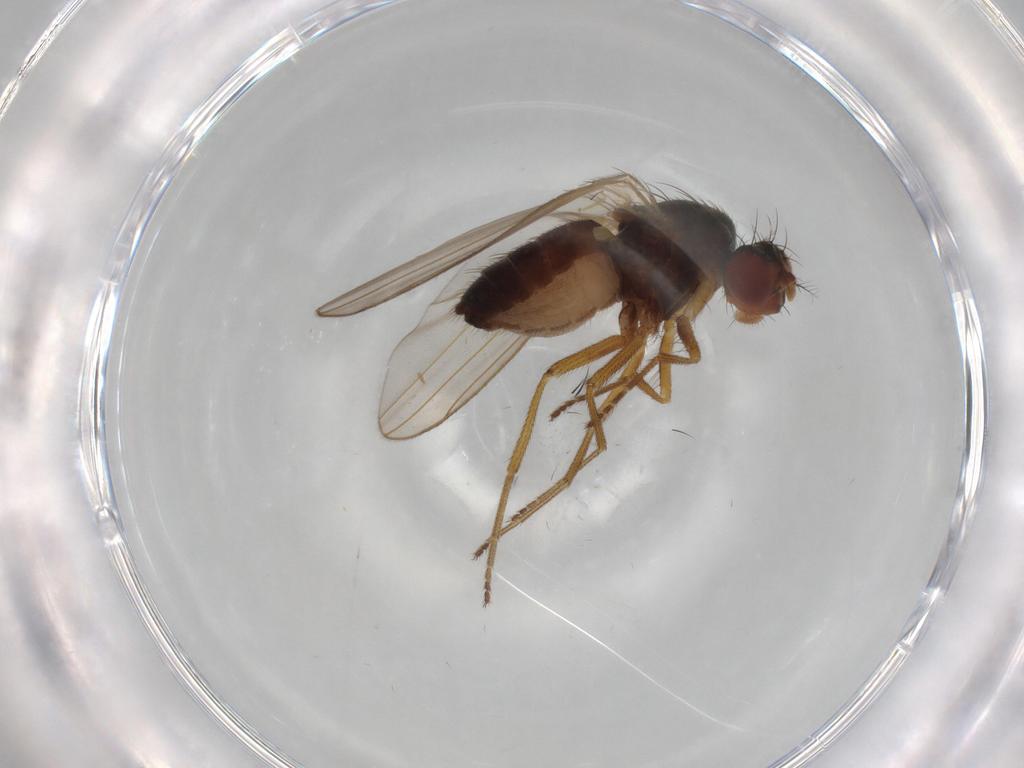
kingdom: Animalia
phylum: Arthropoda
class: Insecta
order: Diptera
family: Drosophilidae
